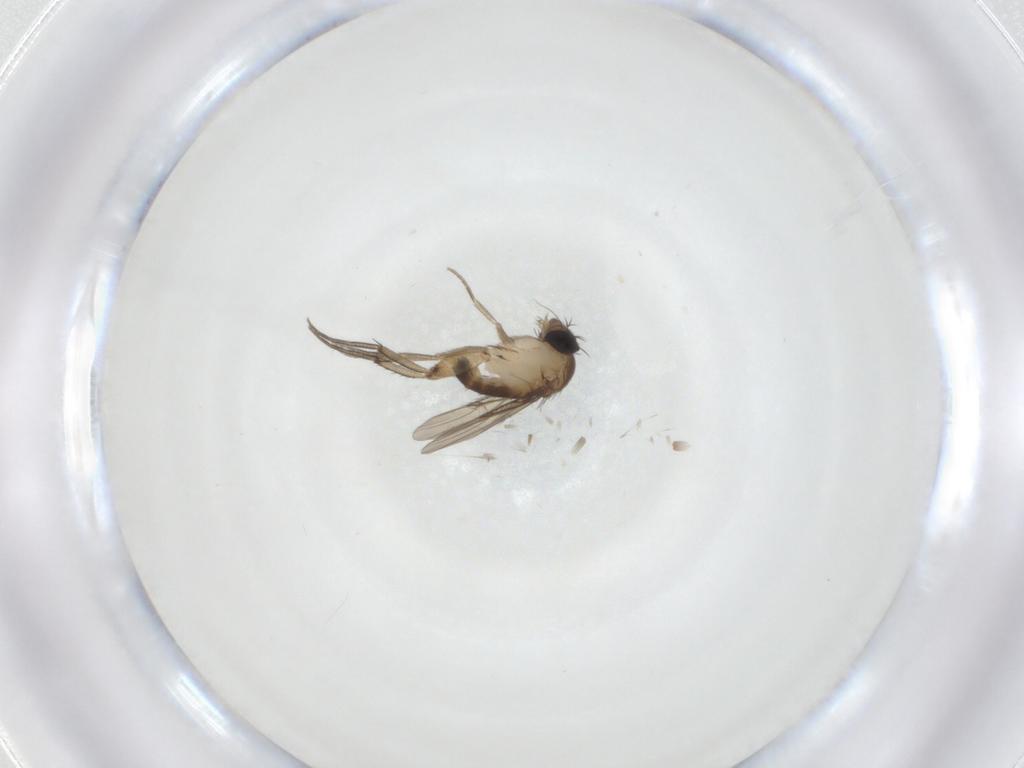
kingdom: Animalia
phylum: Arthropoda
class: Insecta
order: Diptera
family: Phoridae
